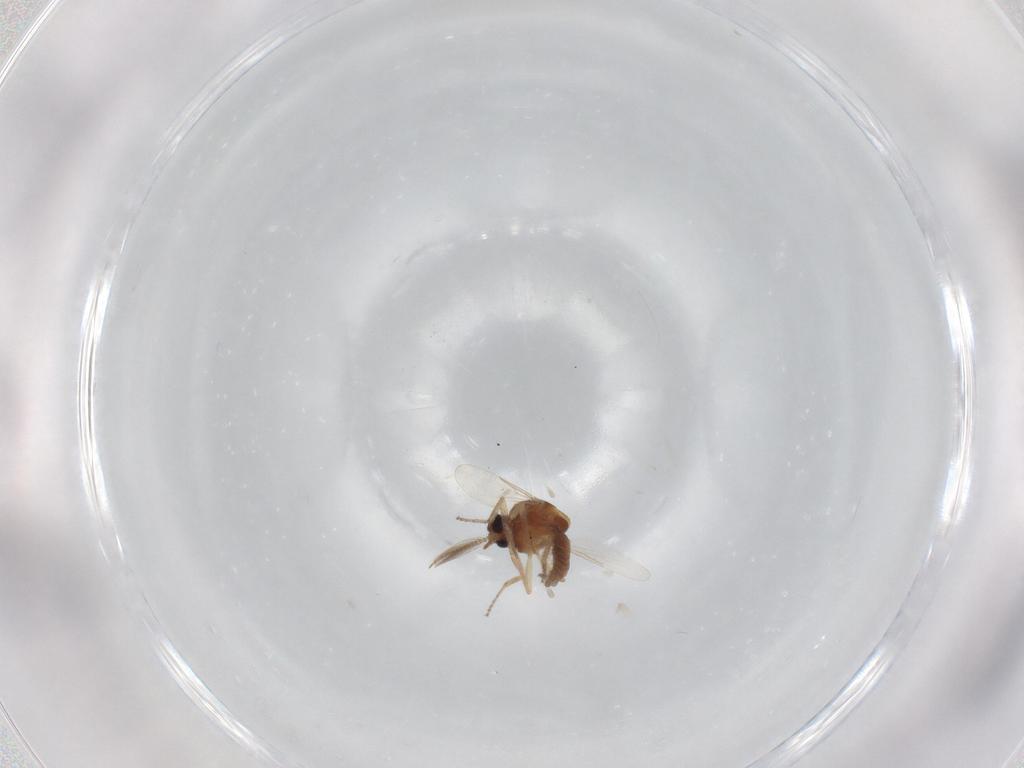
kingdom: Animalia
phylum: Arthropoda
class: Insecta
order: Diptera
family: Ceratopogonidae
